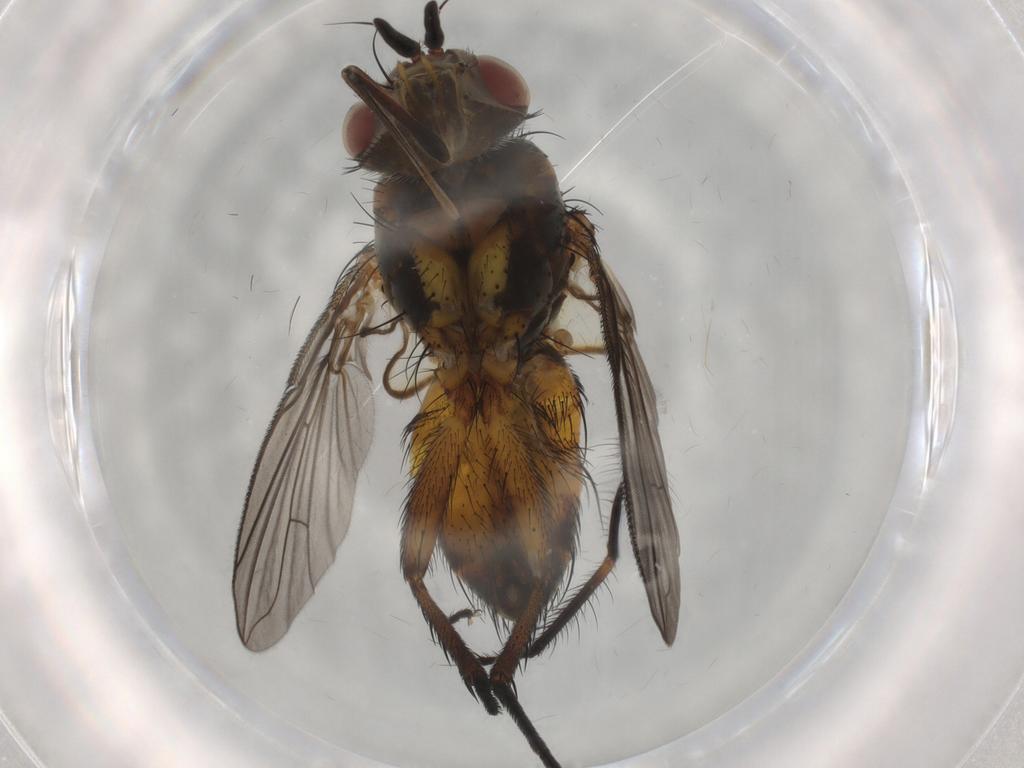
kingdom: Animalia
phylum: Arthropoda
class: Insecta
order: Diptera
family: Tachinidae
